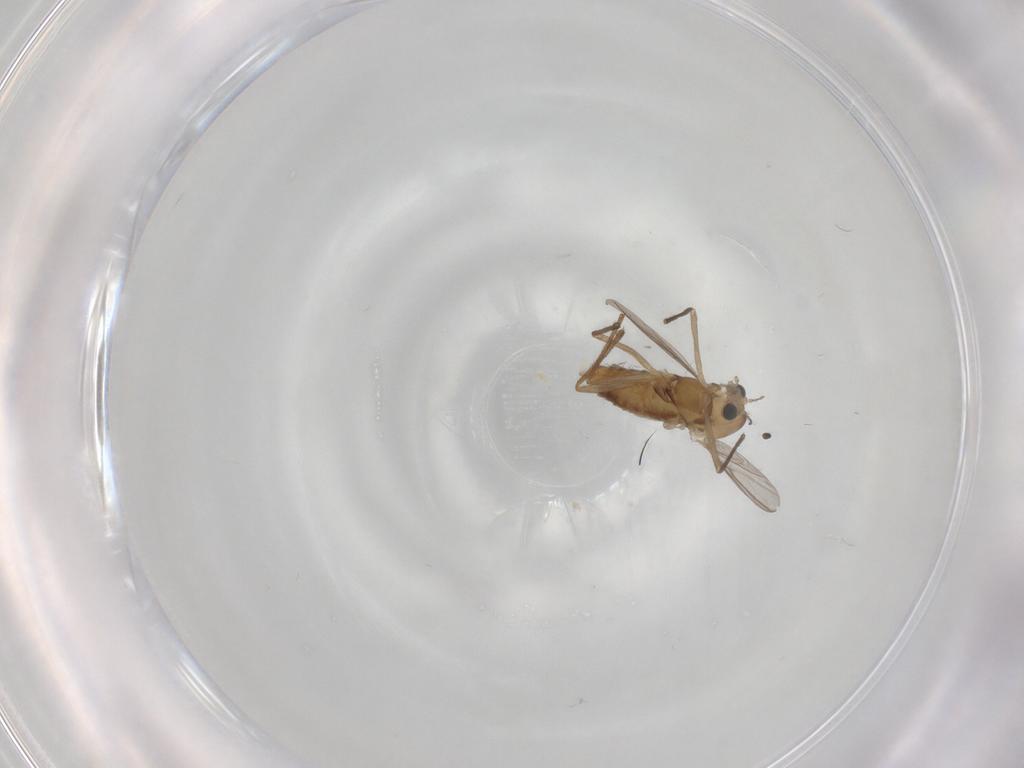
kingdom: Animalia
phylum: Arthropoda
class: Insecta
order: Diptera
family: Chironomidae
